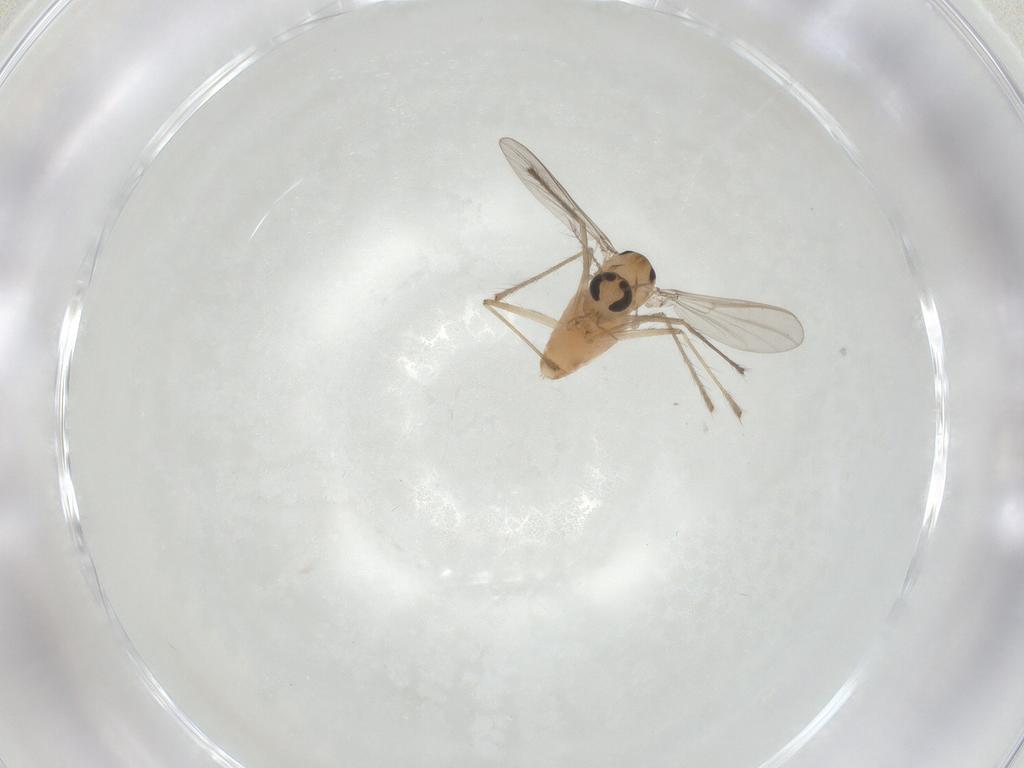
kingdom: Animalia
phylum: Arthropoda
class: Insecta
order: Diptera
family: Chironomidae
